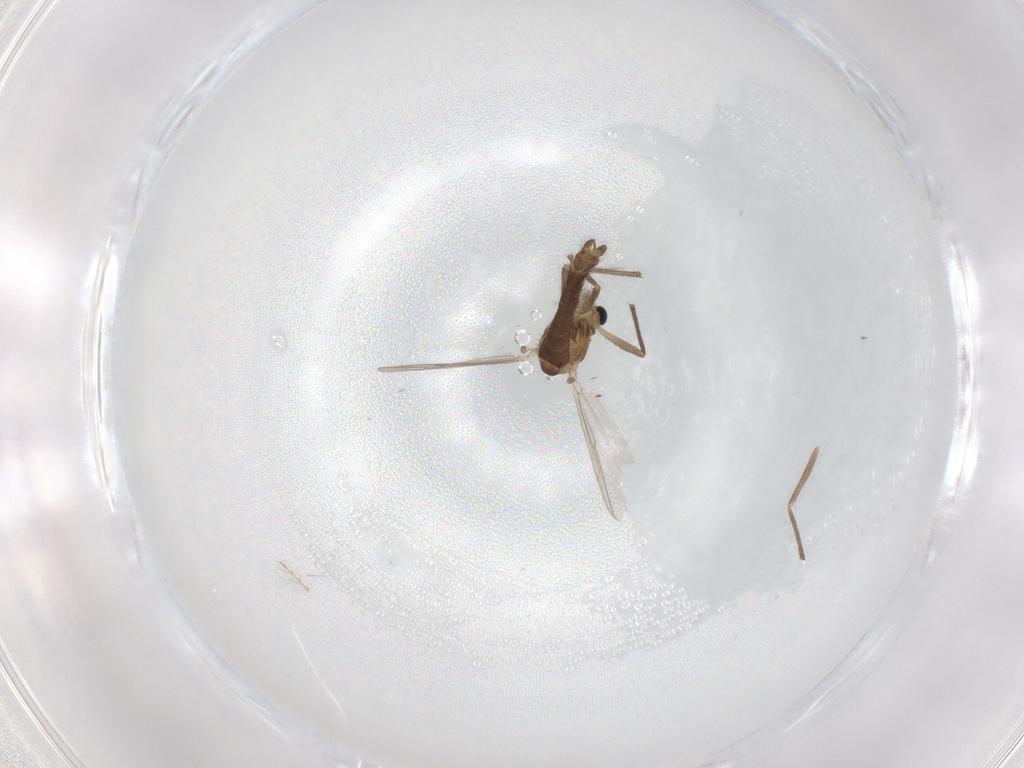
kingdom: Animalia
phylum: Arthropoda
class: Insecta
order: Diptera
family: Chironomidae
